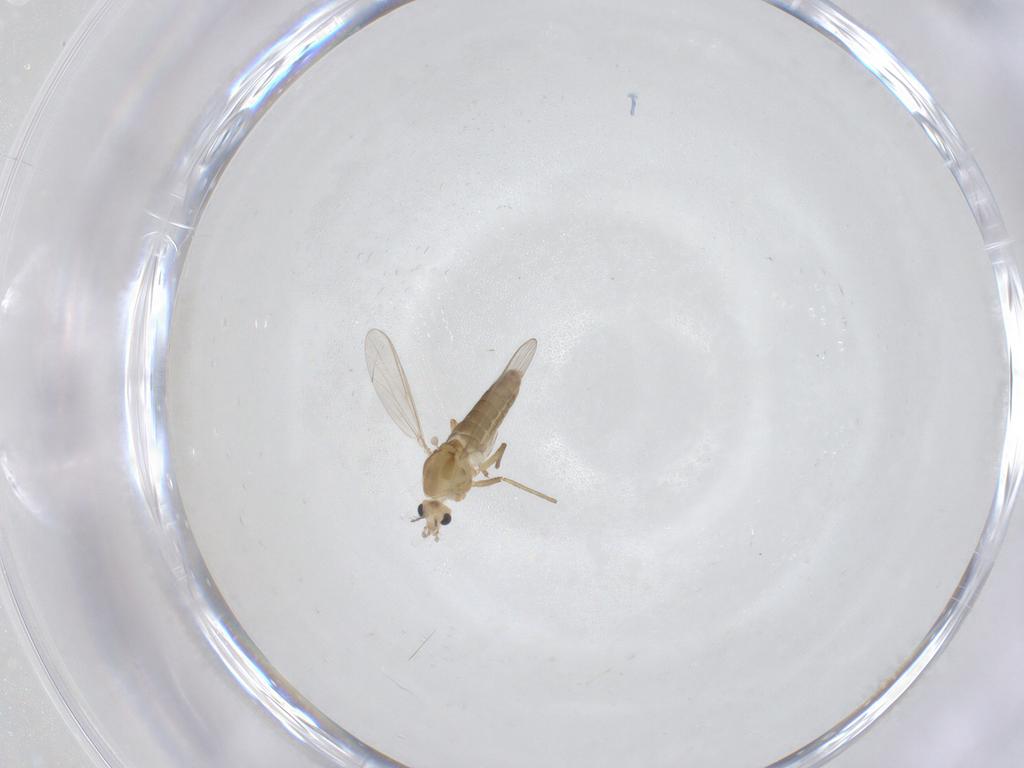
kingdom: Animalia
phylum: Arthropoda
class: Insecta
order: Diptera
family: Chironomidae
